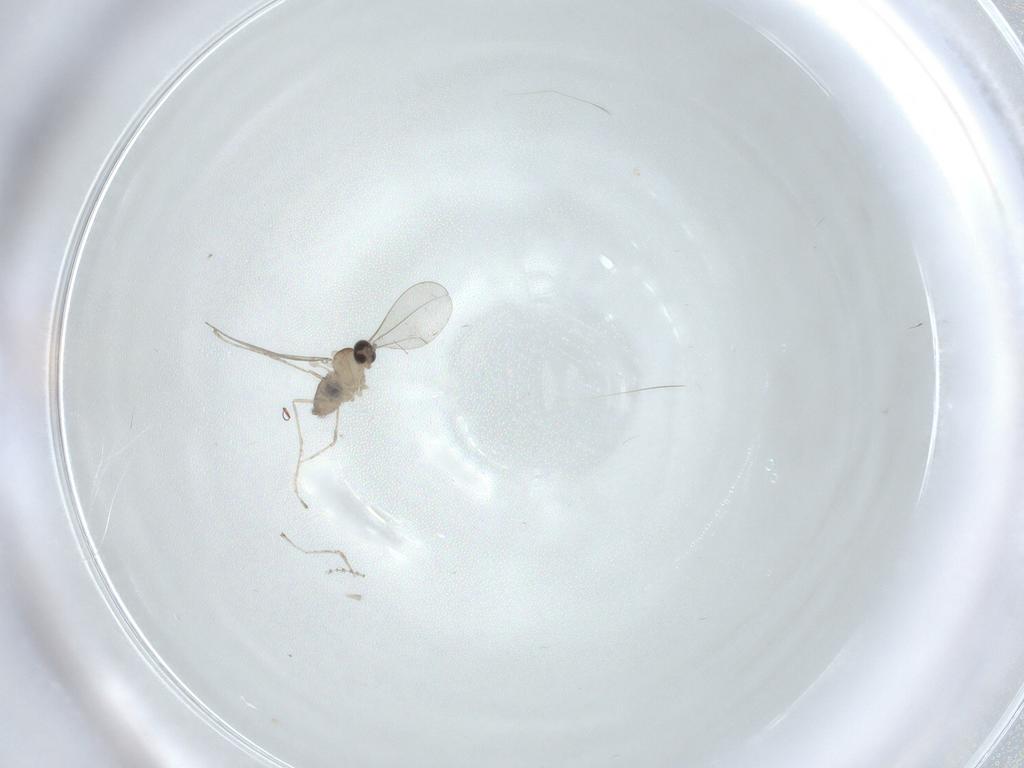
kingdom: Animalia
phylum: Arthropoda
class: Insecta
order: Diptera
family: Cecidomyiidae
